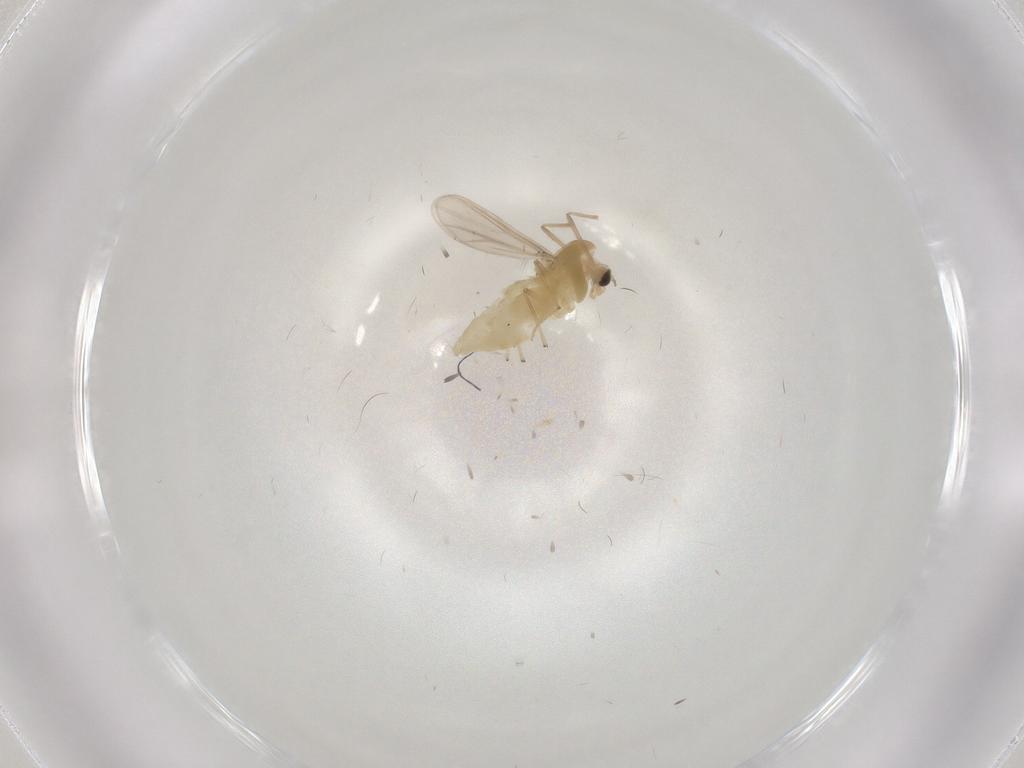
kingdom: Animalia
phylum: Arthropoda
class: Insecta
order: Diptera
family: Chironomidae
